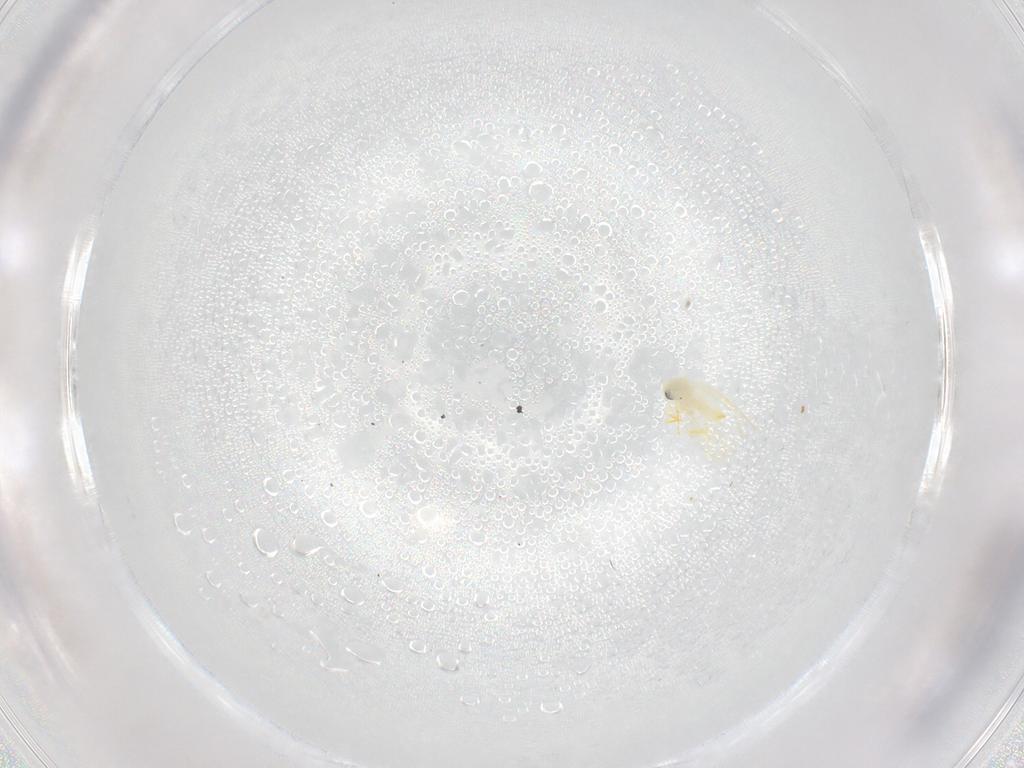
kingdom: Animalia
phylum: Arthropoda
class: Insecta
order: Hemiptera
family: Aleyrodidae
